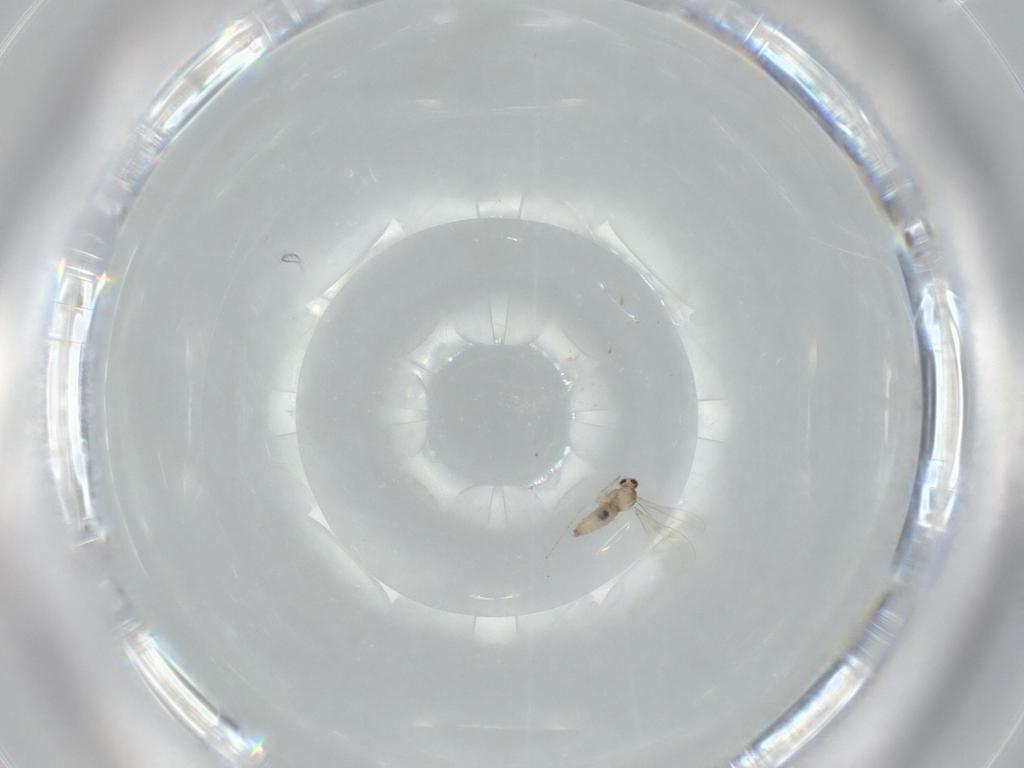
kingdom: Animalia
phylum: Arthropoda
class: Insecta
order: Diptera
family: Cecidomyiidae
